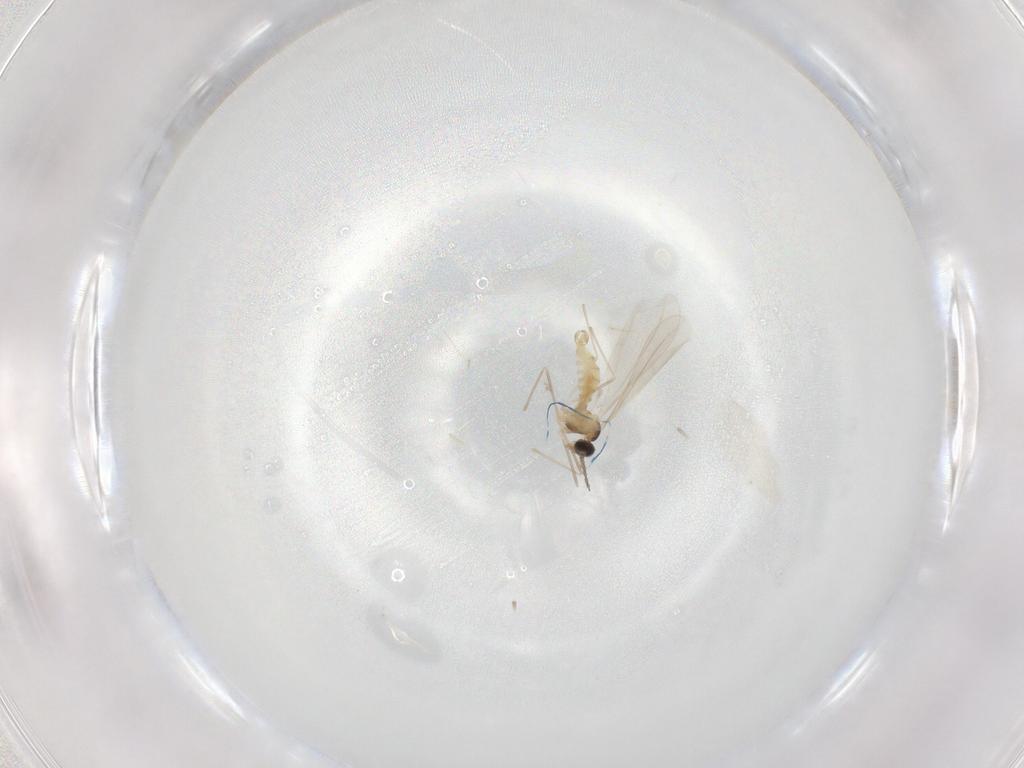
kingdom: Animalia
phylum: Arthropoda
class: Insecta
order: Diptera
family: Cecidomyiidae
